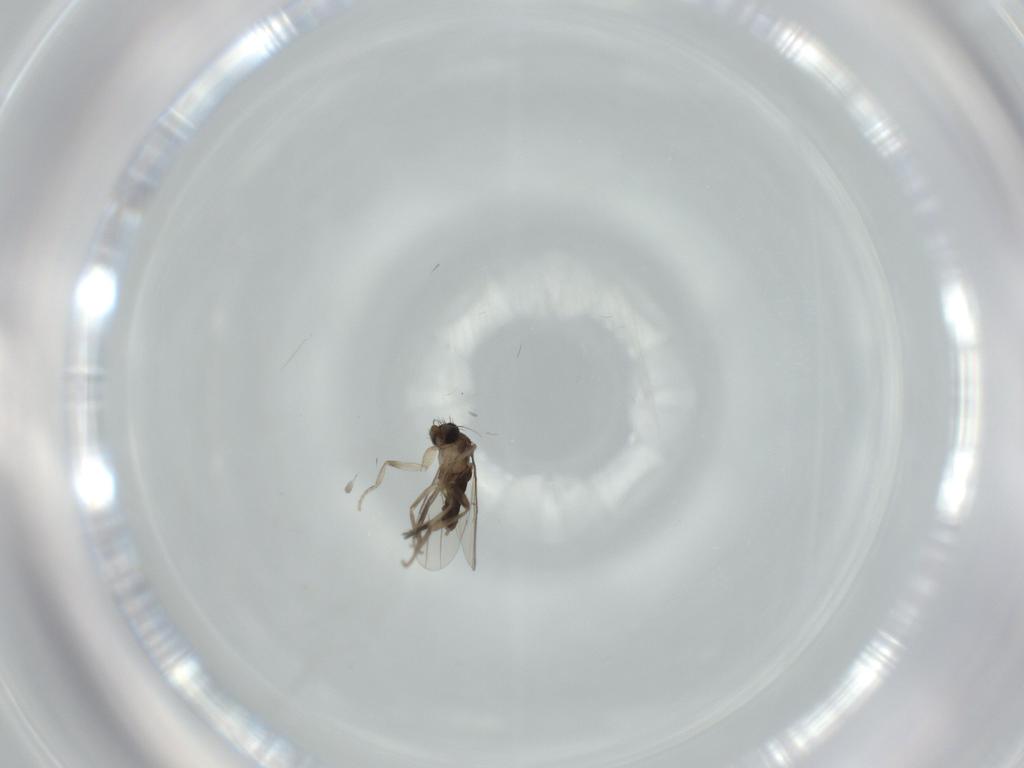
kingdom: Animalia
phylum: Arthropoda
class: Insecta
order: Diptera
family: Phoridae
